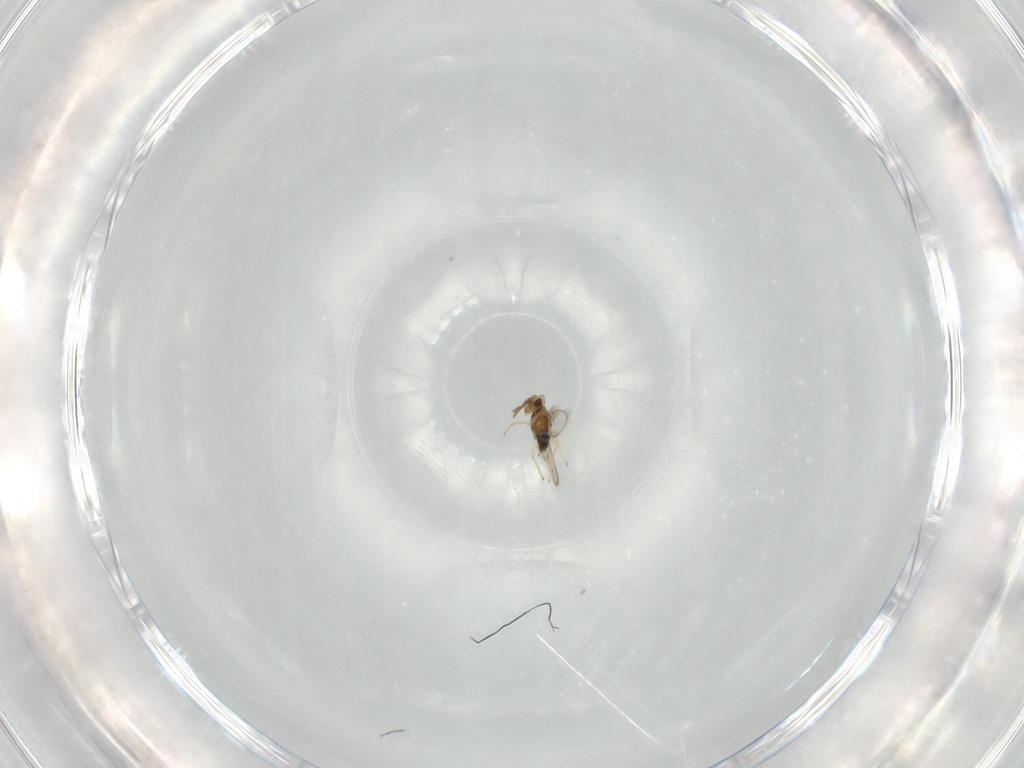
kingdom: Animalia
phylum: Arthropoda
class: Insecta
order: Hymenoptera
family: Aphelinidae
